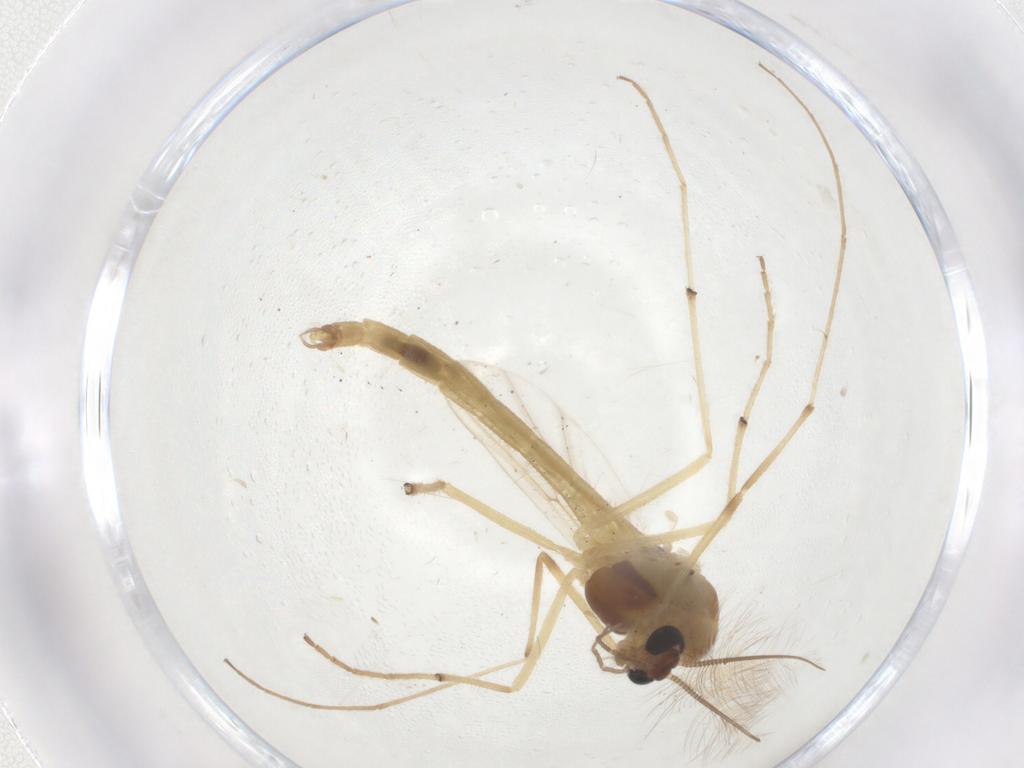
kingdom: Animalia
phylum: Arthropoda
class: Insecta
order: Diptera
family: Chironomidae
